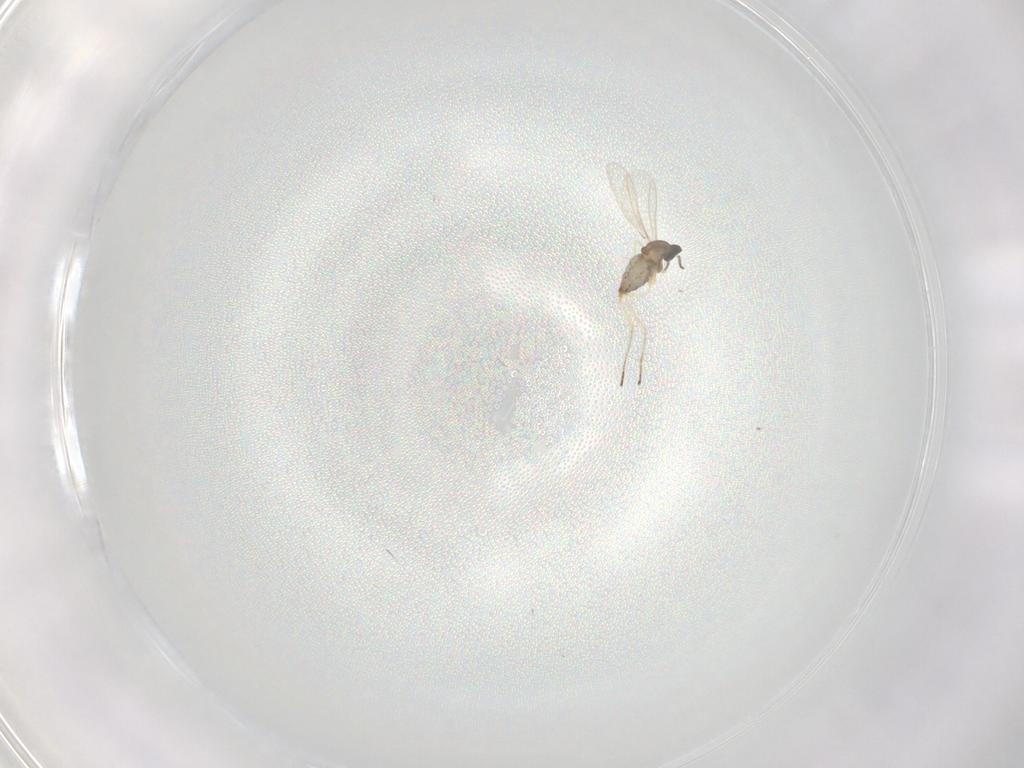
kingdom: Animalia
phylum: Arthropoda
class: Insecta
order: Diptera
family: Cecidomyiidae
